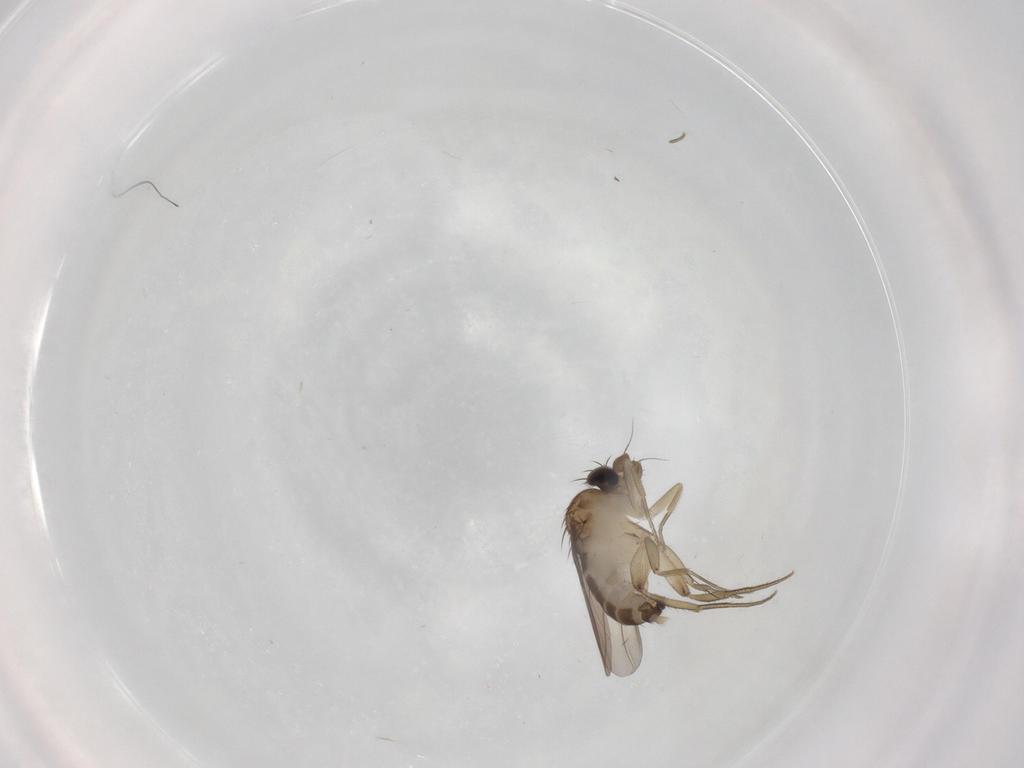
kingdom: Animalia
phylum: Arthropoda
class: Insecta
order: Diptera
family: Phoridae
